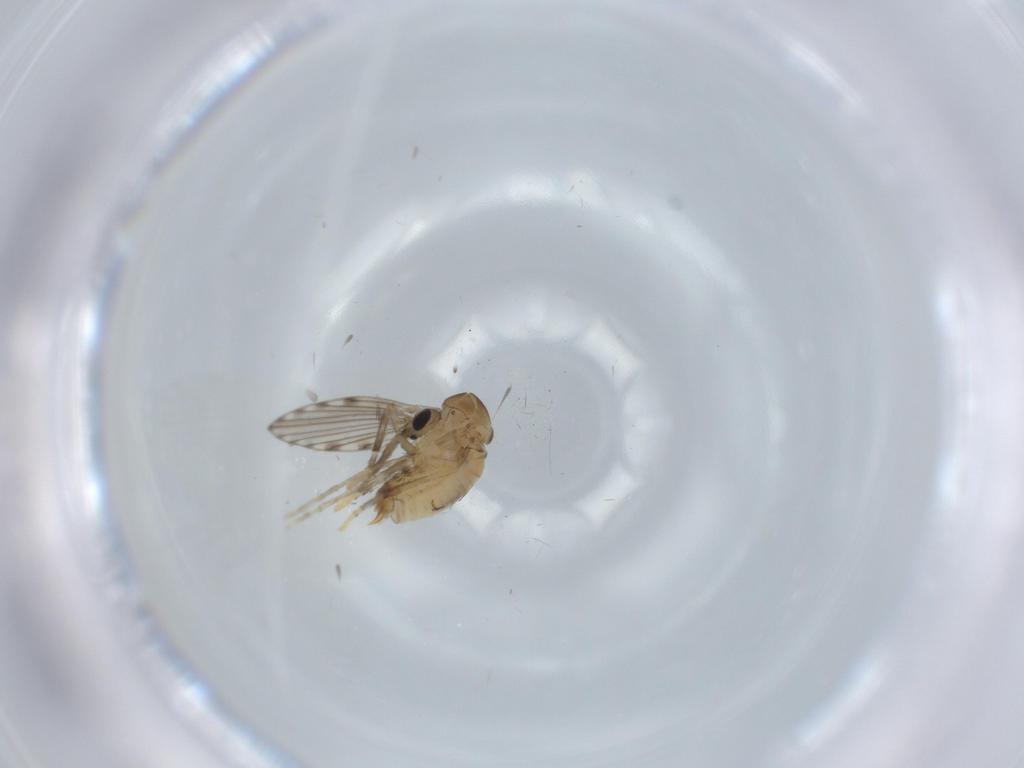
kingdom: Animalia
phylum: Arthropoda
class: Insecta
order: Diptera
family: Psychodidae
